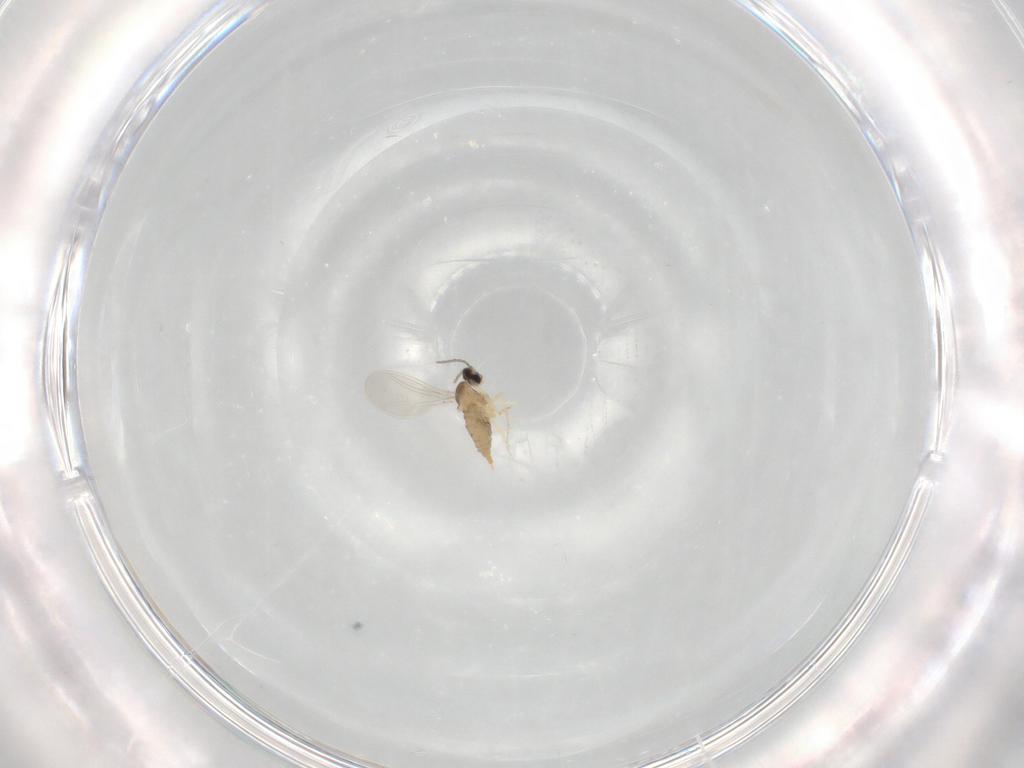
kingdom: Animalia
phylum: Arthropoda
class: Insecta
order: Diptera
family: Cecidomyiidae
